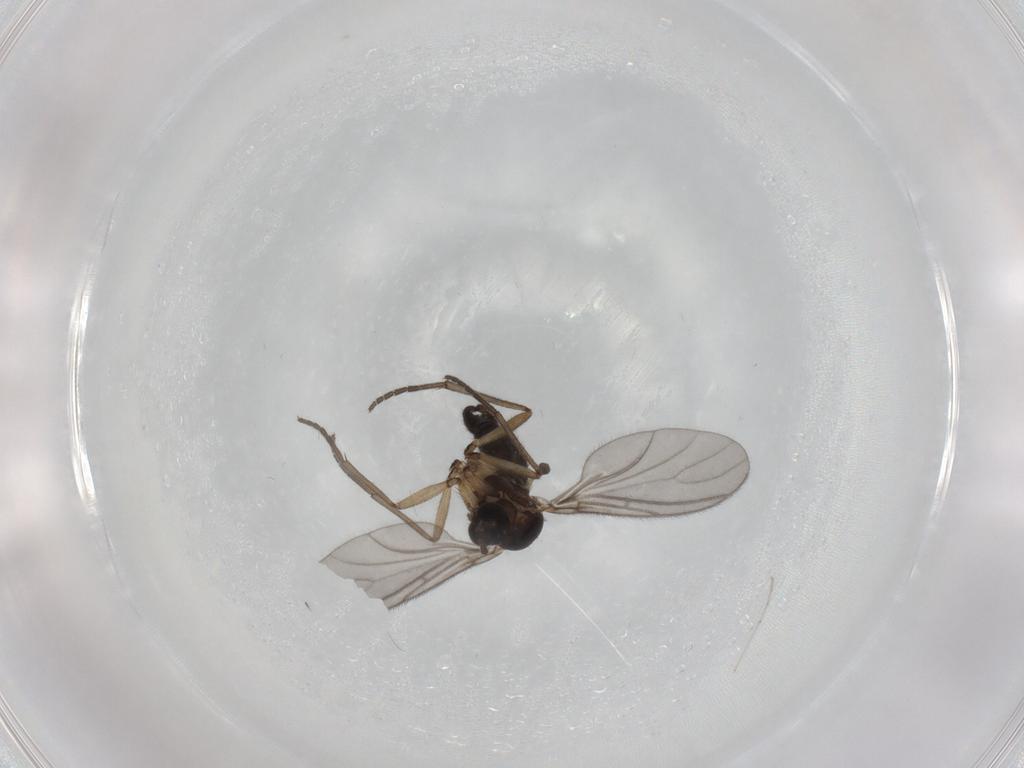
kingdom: Animalia
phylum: Arthropoda
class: Insecta
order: Diptera
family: Sciaridae
